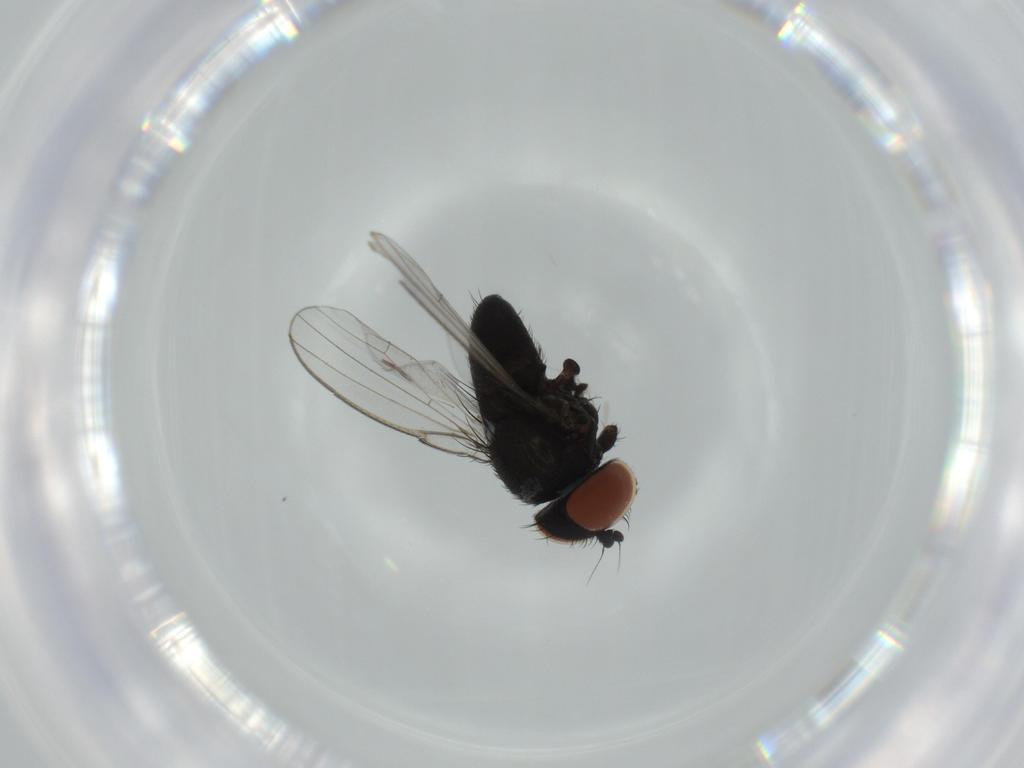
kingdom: Animalia
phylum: Arthropoda
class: Insecta
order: Diptera
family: Milichiidae
